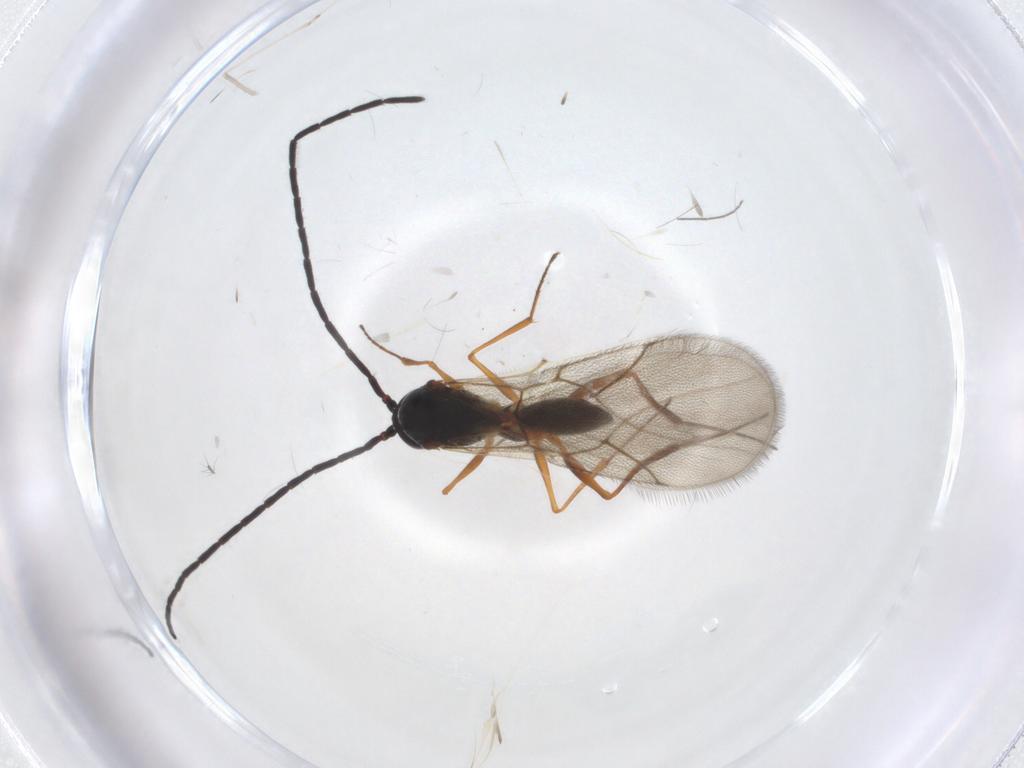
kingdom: Animalia
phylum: Arthropoda
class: Insecta
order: Hymenoptera
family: Figitidae
